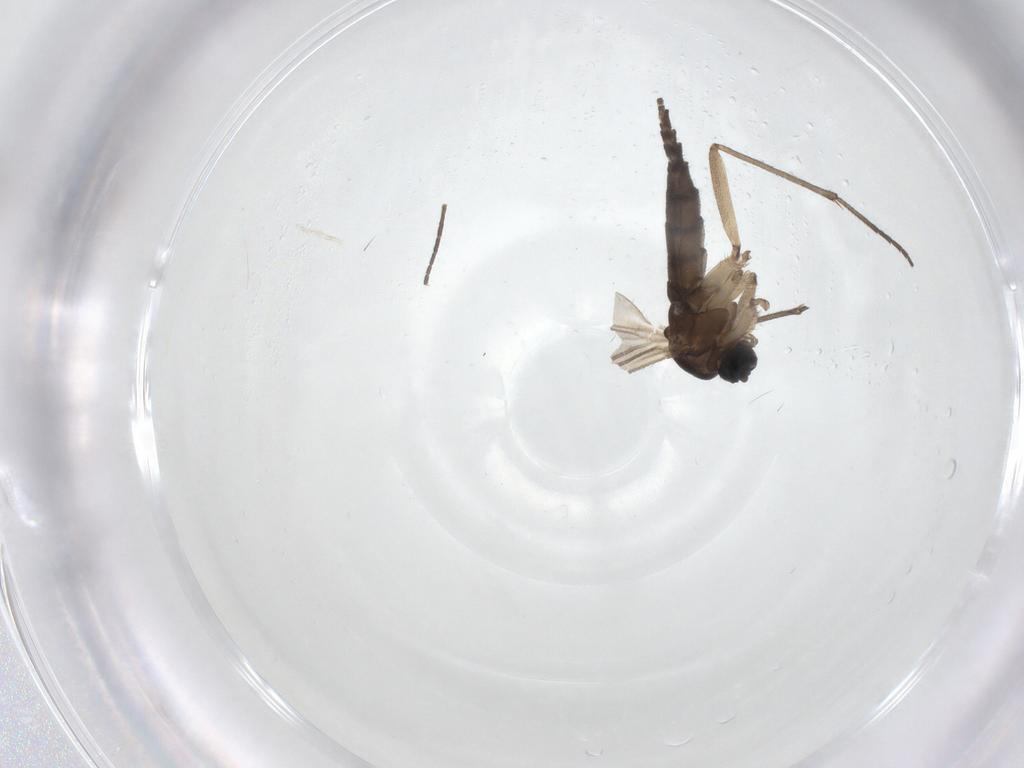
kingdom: Animalia
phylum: Arthropoda
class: Insecta
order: Diptera
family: Sciaridae
